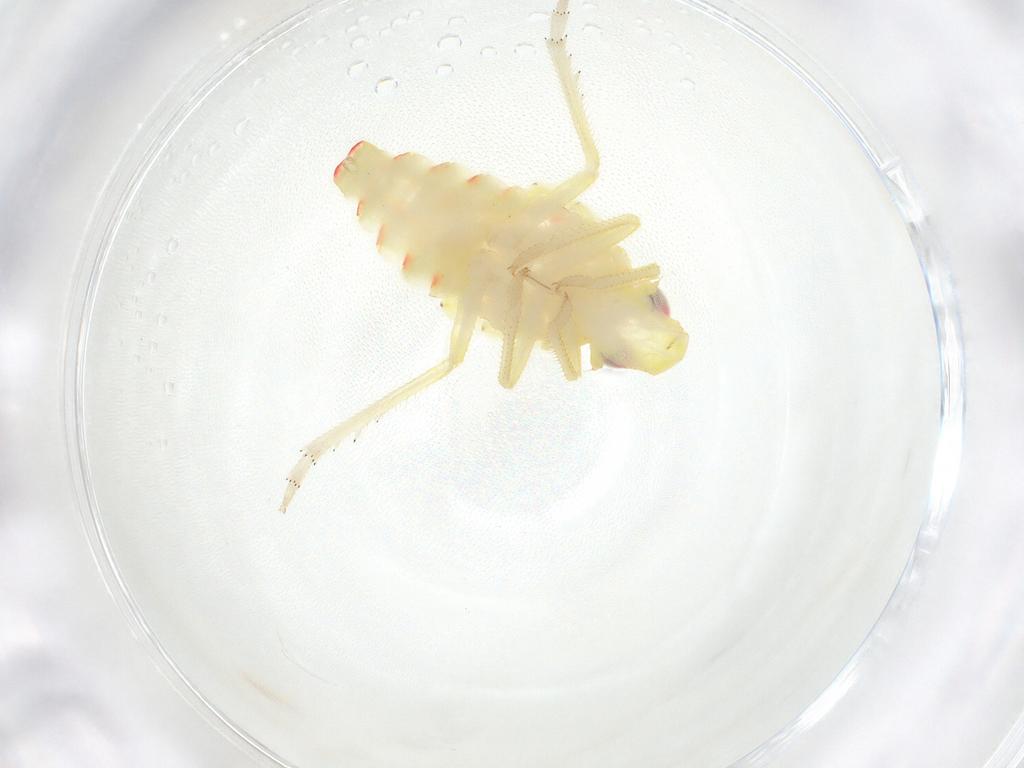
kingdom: Animalia
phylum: Arthropoda
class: Insecta
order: Hemiptera
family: Tropiduchidae
